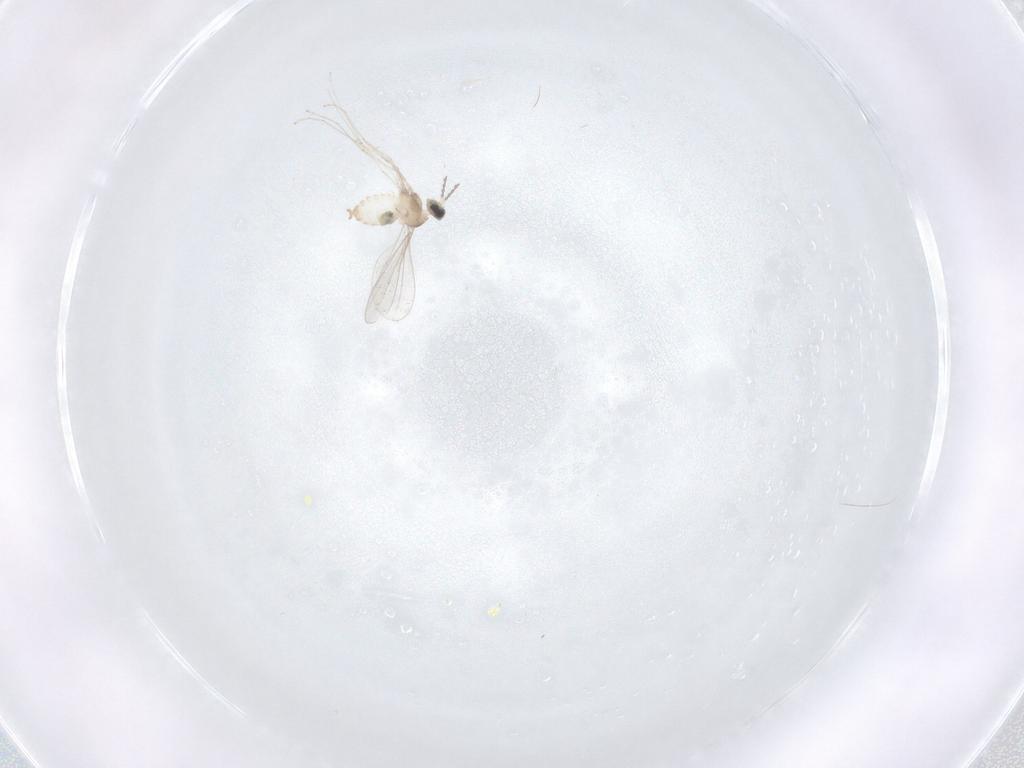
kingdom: Animalia
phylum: Arthropoda
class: Insecta
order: Diptera
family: Cecidomyiidae
